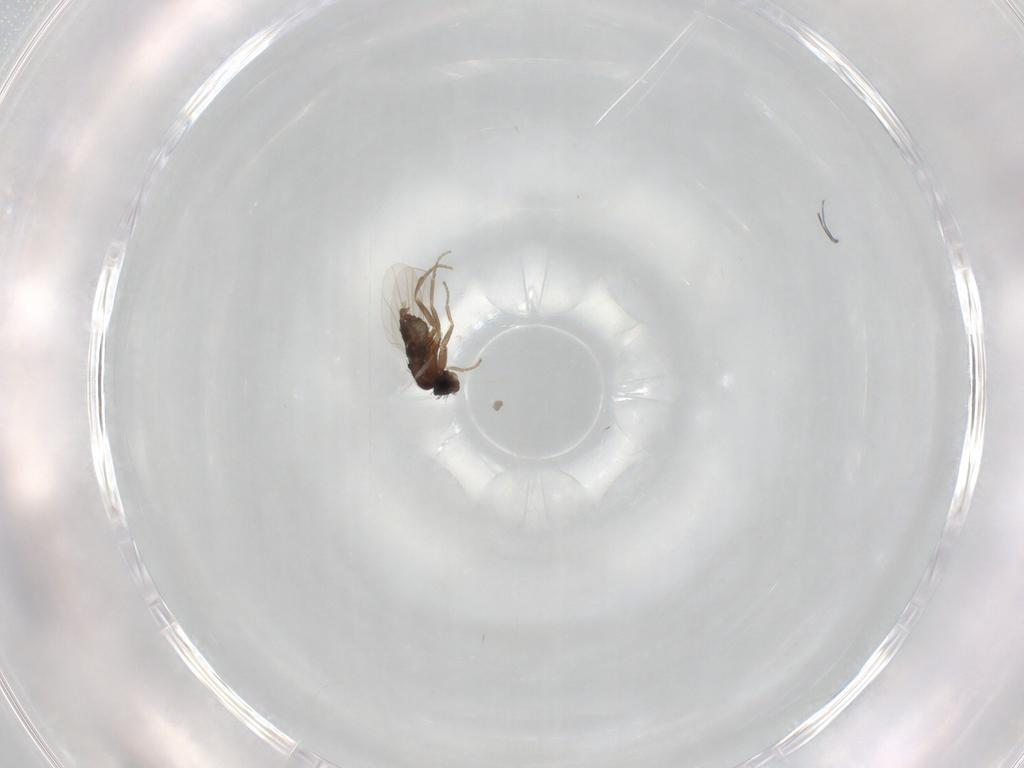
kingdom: Animalia
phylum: Arthropoda
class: Insecta
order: Diptera
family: Phoridae
